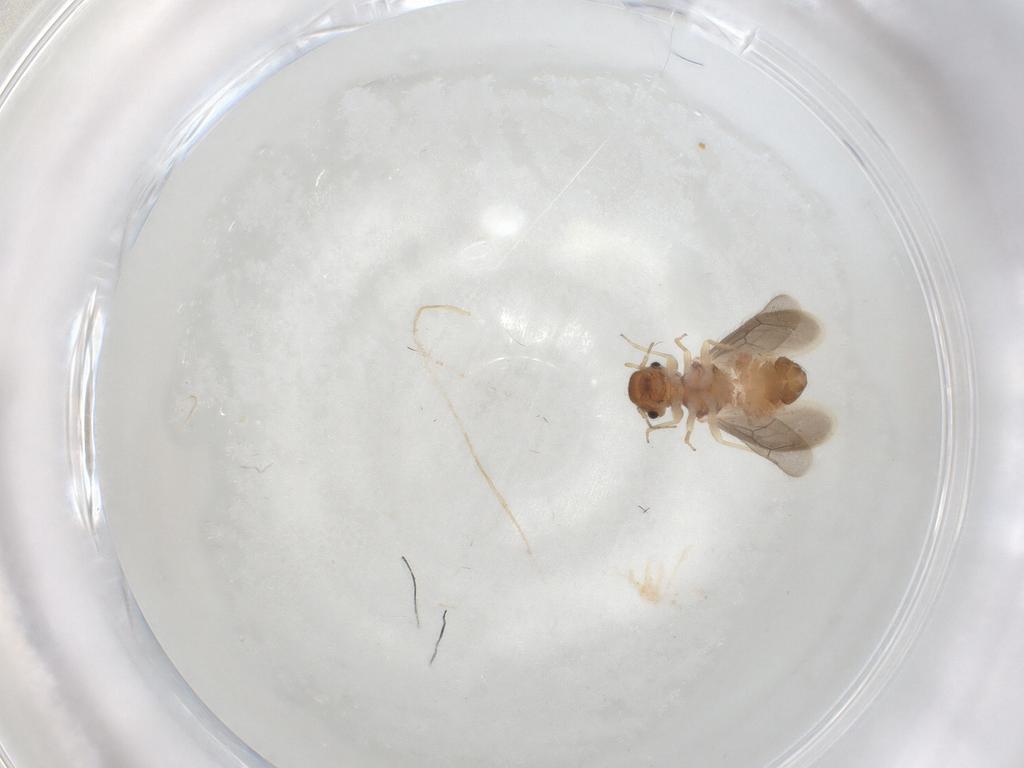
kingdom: Animalia
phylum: Arthropoda
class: Insecta
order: Psocodea
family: Archipsocidae
